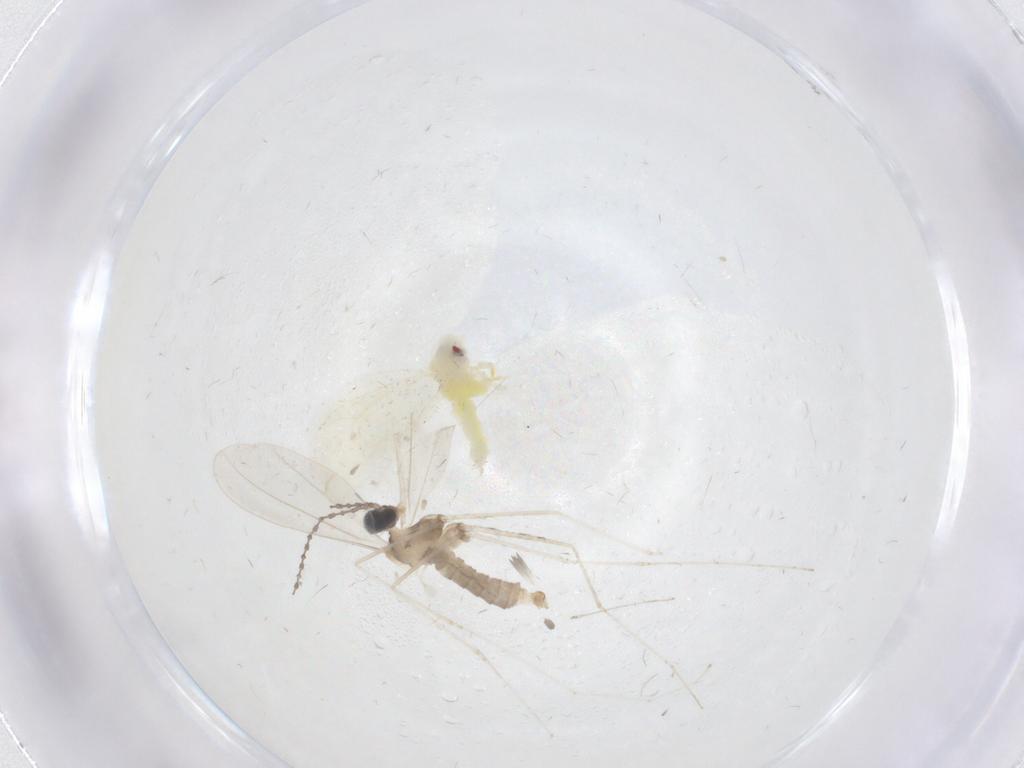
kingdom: Animalia
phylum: Arthropoda
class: Insecta
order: Hemiptera
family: Aleyrodidae
